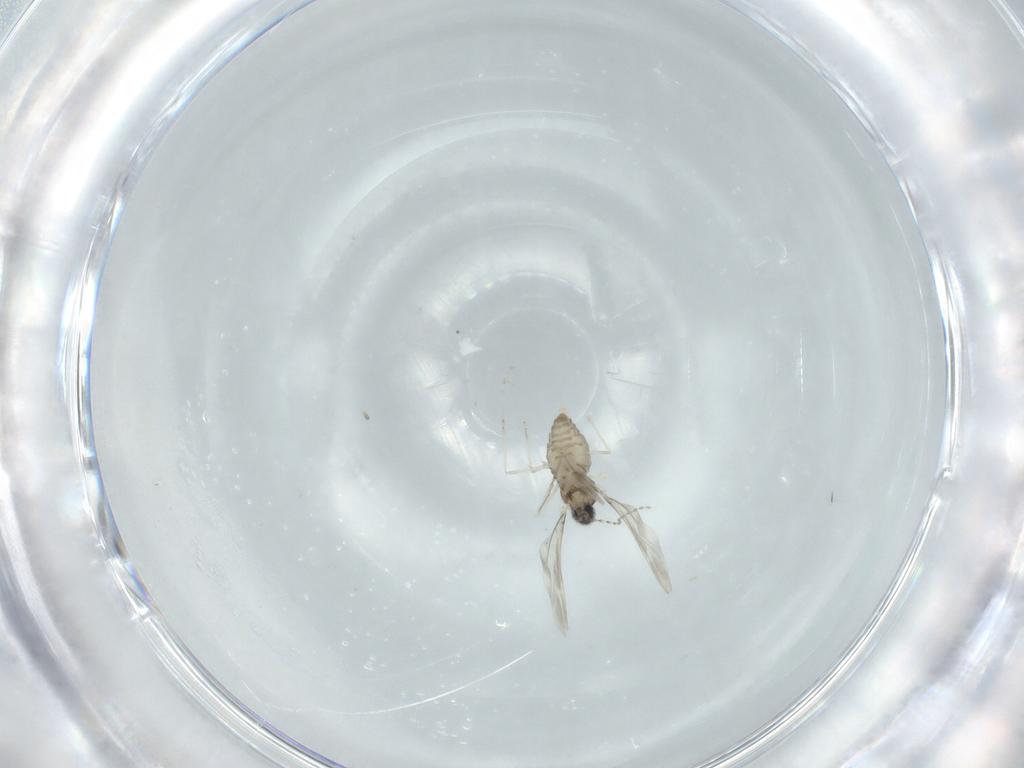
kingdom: Animalia
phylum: Arthropoda
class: Insecta
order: Diptera
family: Cecidomyiidae
